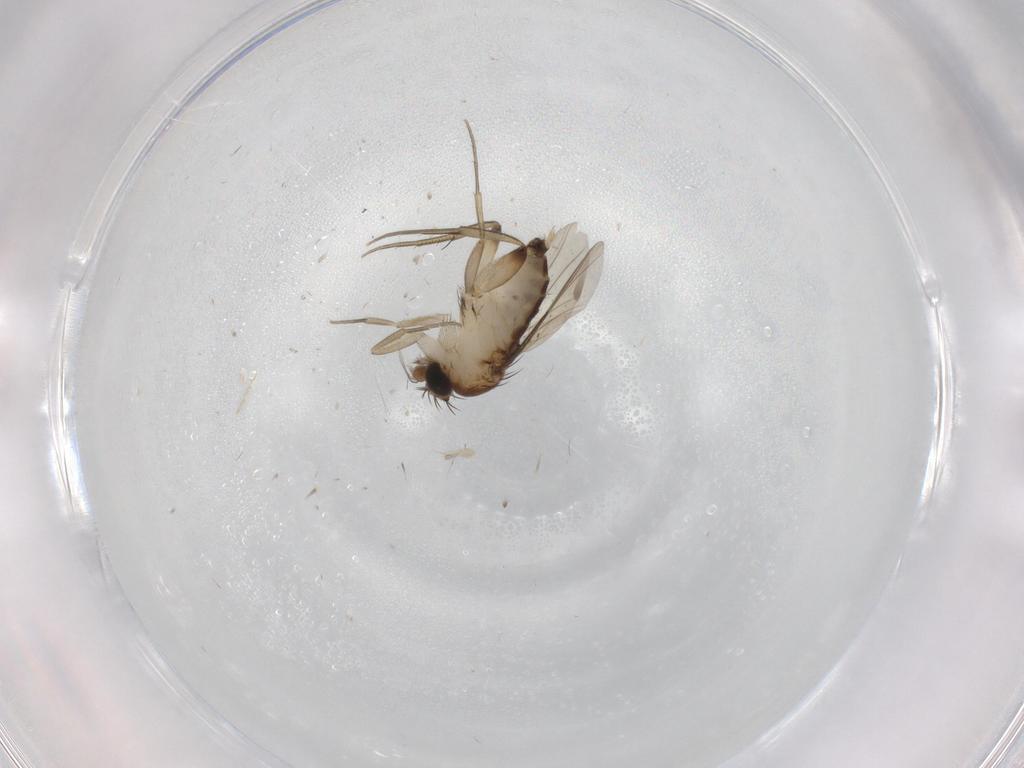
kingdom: Animalia
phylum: Arthropoda
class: Insecta
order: Diptera
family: Phoridae
